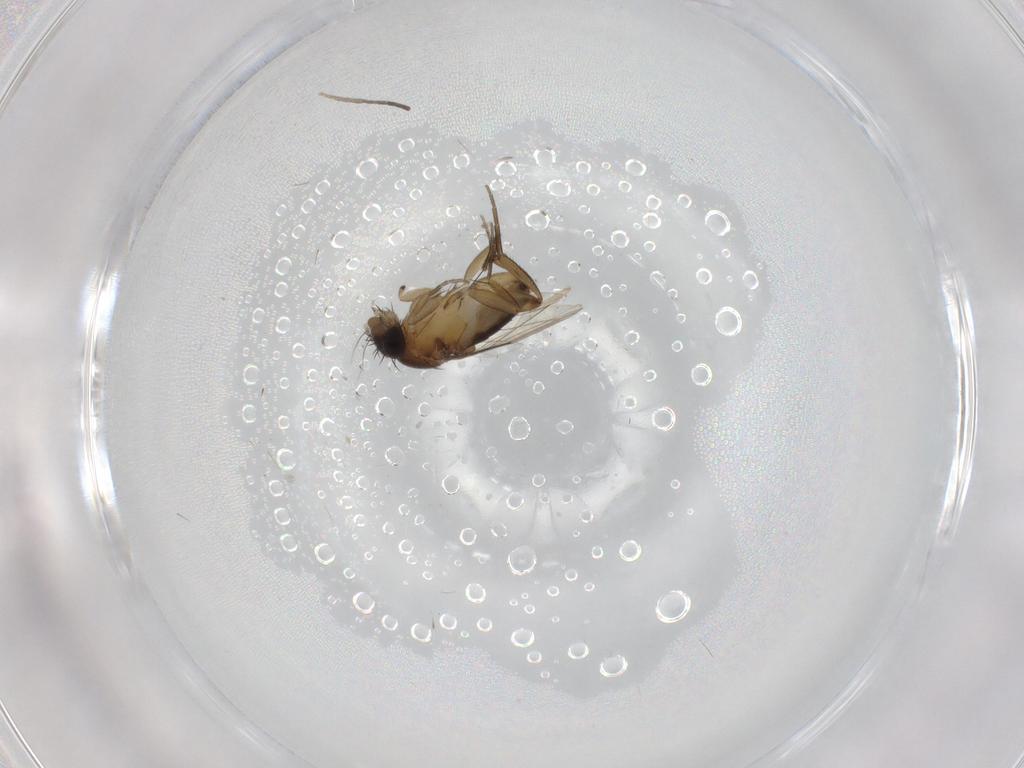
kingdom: Animalia
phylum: Arthropoda
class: Insecta
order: Diptera
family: Phoridae
